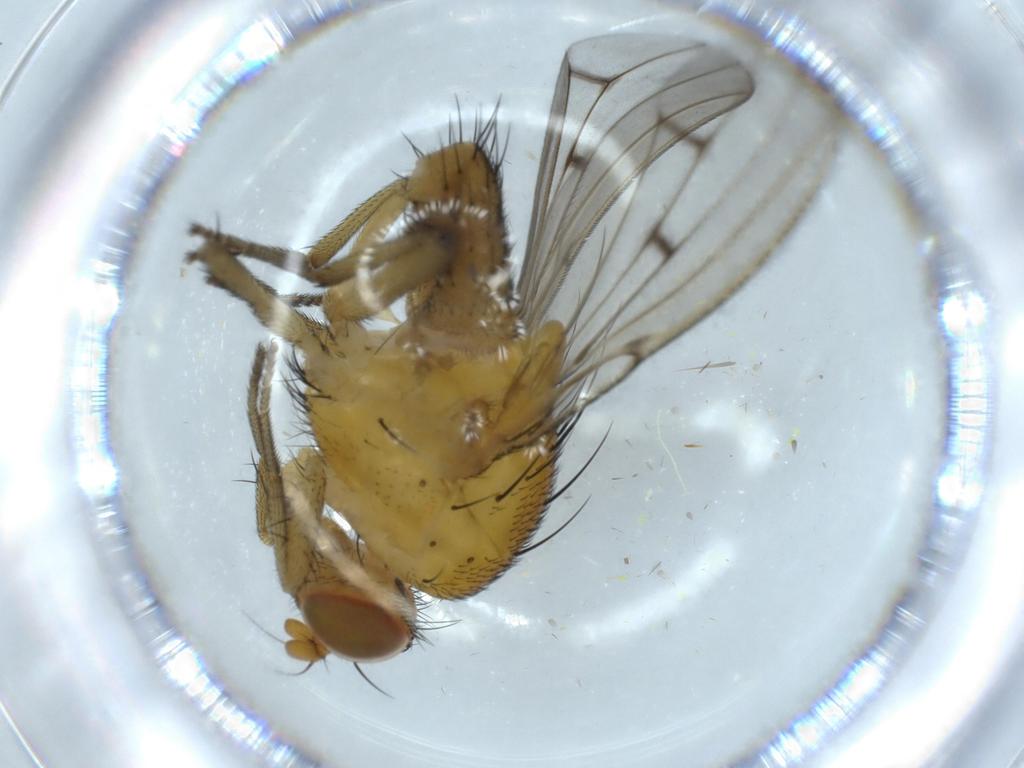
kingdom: Animalia
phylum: Arthropoda
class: Insecta
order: Diptera
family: Lauxaniidae
